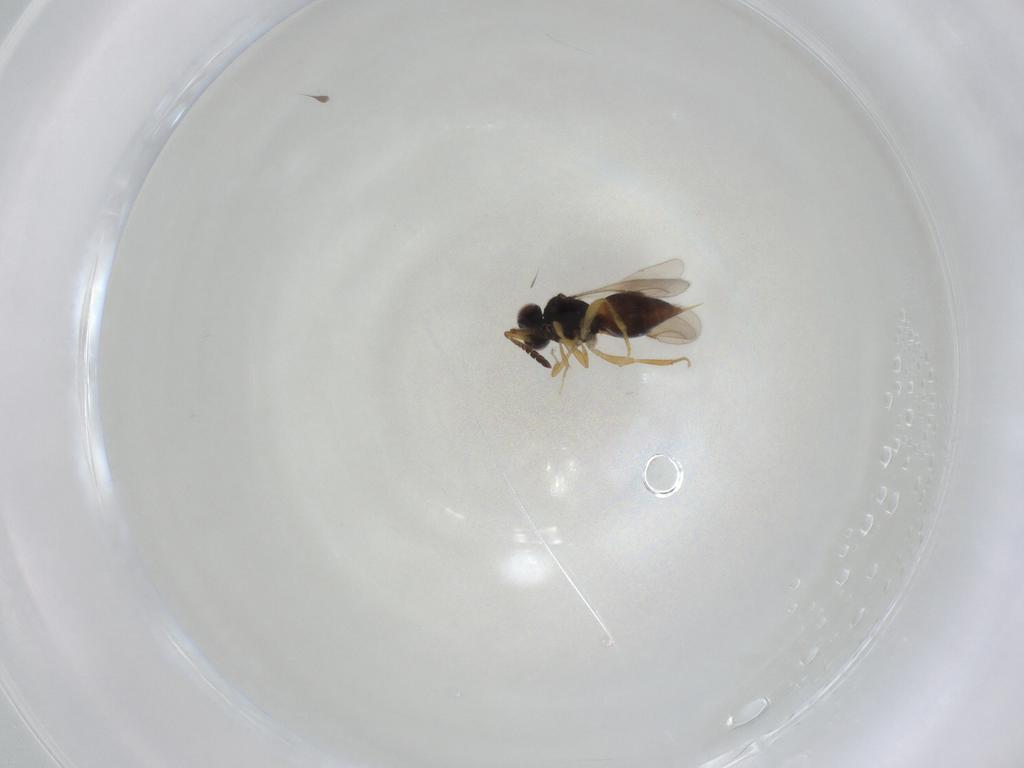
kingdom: Animalia
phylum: Arthropoda
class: Insecta
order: Hymenoptera
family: Ceraphronidae
